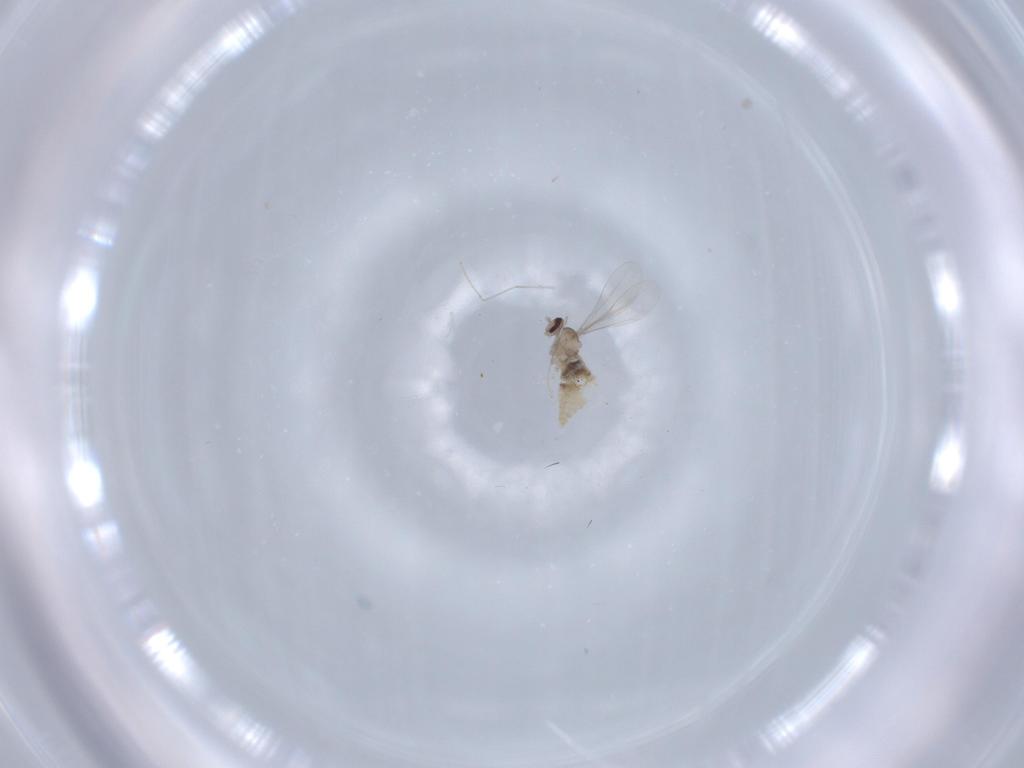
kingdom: Animalia
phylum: Arthropoda
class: Insecta
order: Diptera
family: Cecidomyiidae
